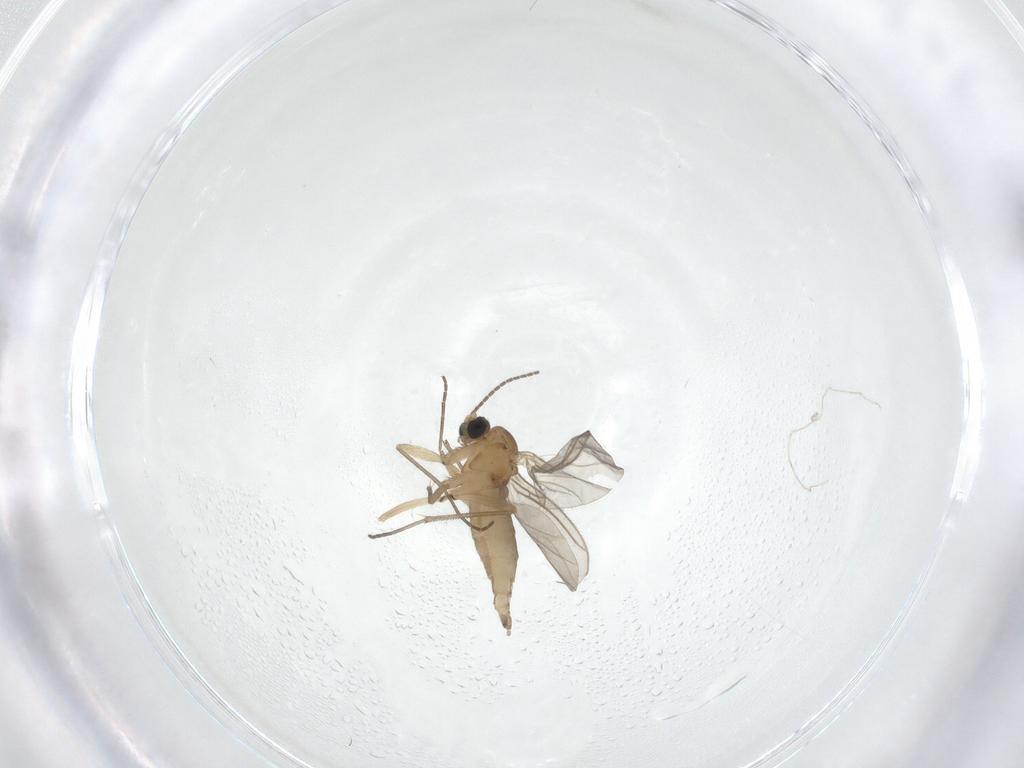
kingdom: Animalia
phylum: Arthropoda
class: Insecta
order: Diptera
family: Sciaridae
